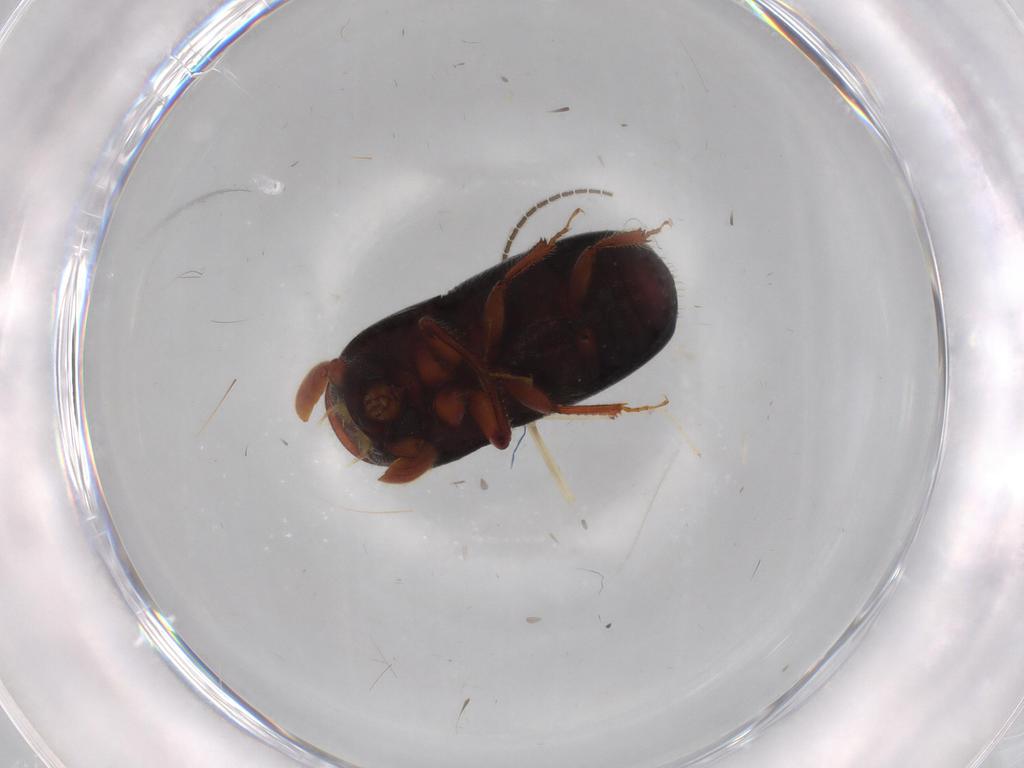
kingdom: Animalia
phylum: Arthropoda
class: Insecta
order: Coleoptera
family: Curculionidae
